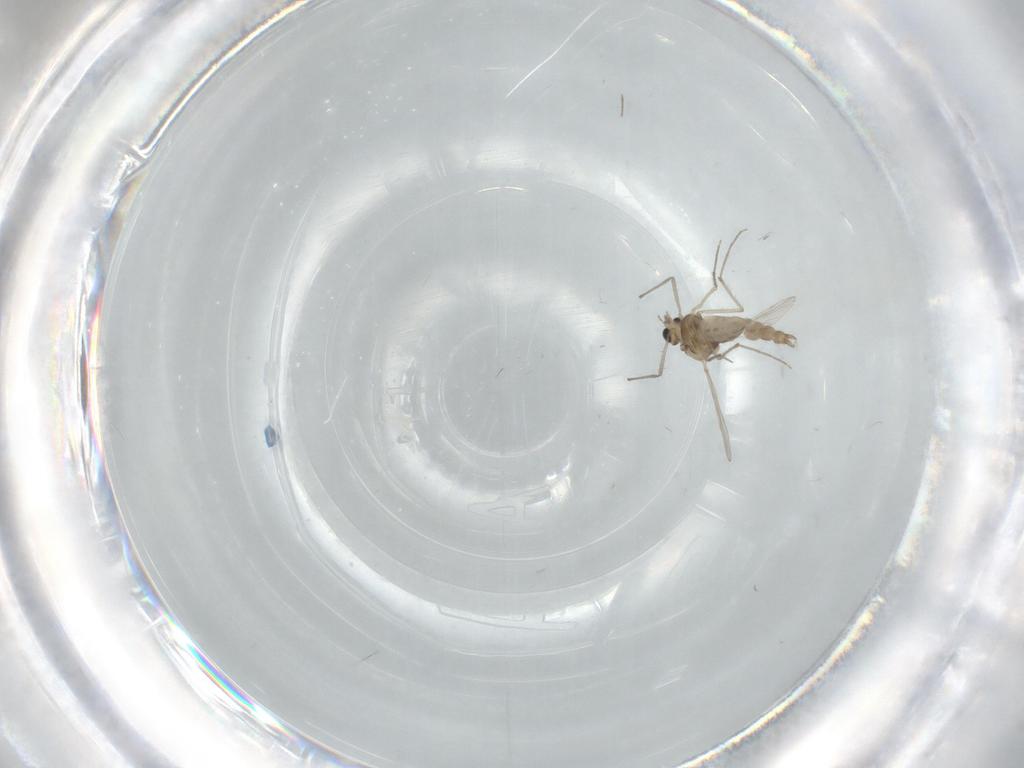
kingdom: Animalia
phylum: Arthropoda
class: Insecta
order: Diptera
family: Chironomidae
